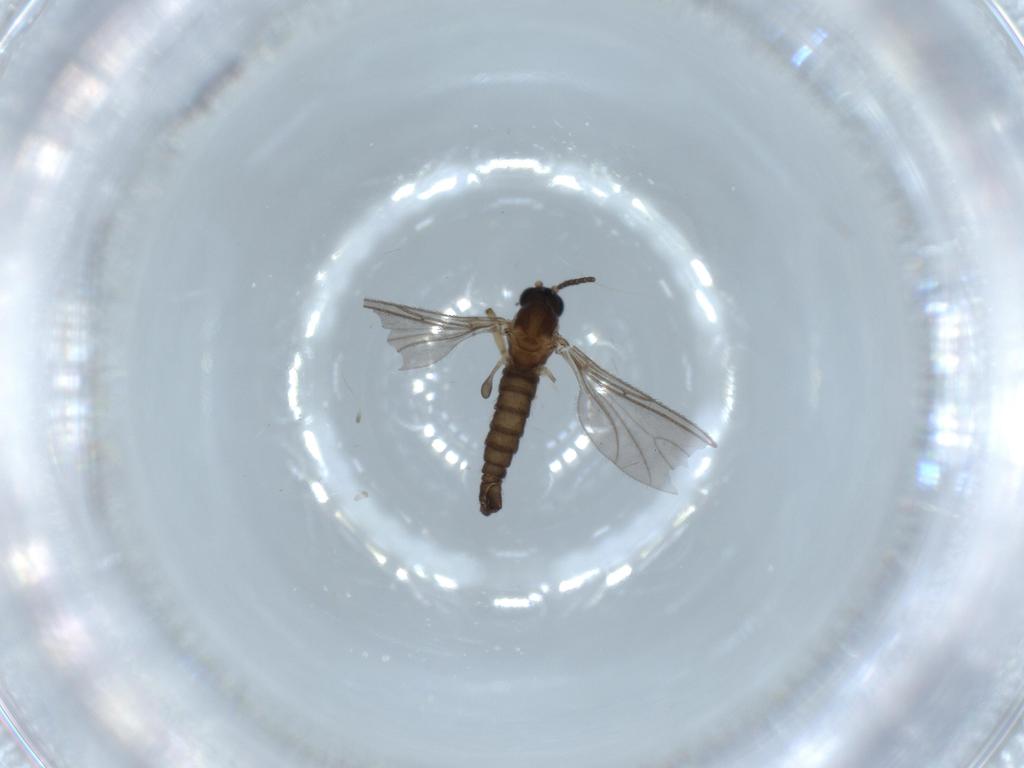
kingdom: Animalia
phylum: Arthropoda
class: Insecta
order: Diptera
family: Sciaridae
